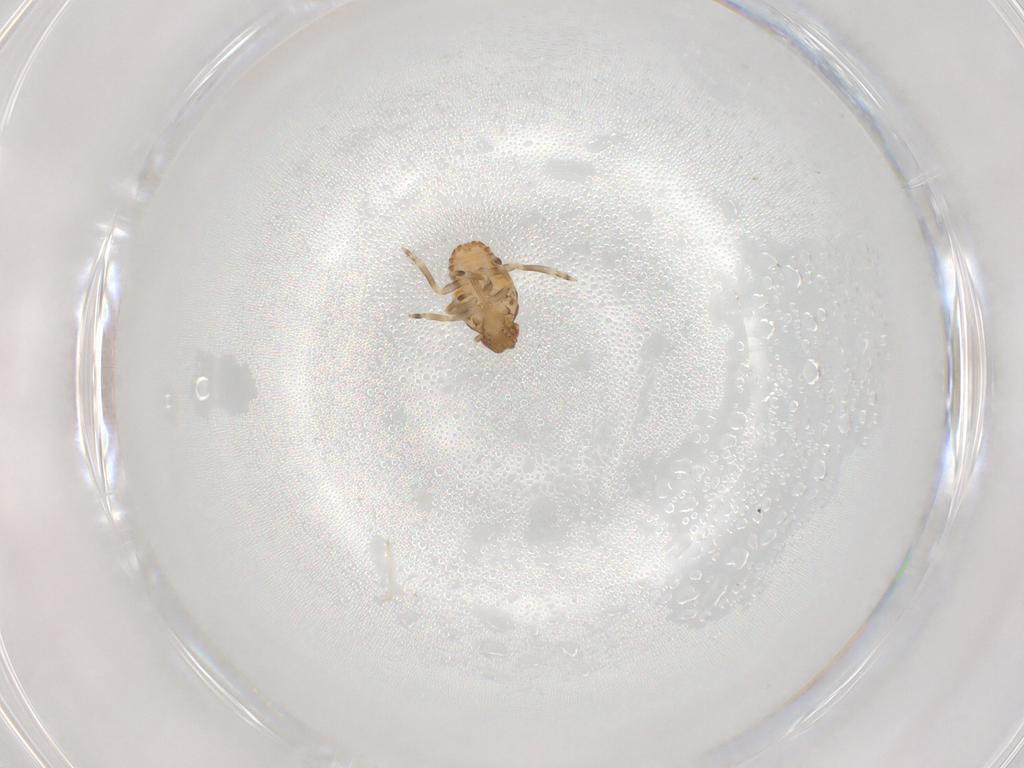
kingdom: Animalia
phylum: Arthropoda
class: Insecta
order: Hemiptera
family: Flatidae
